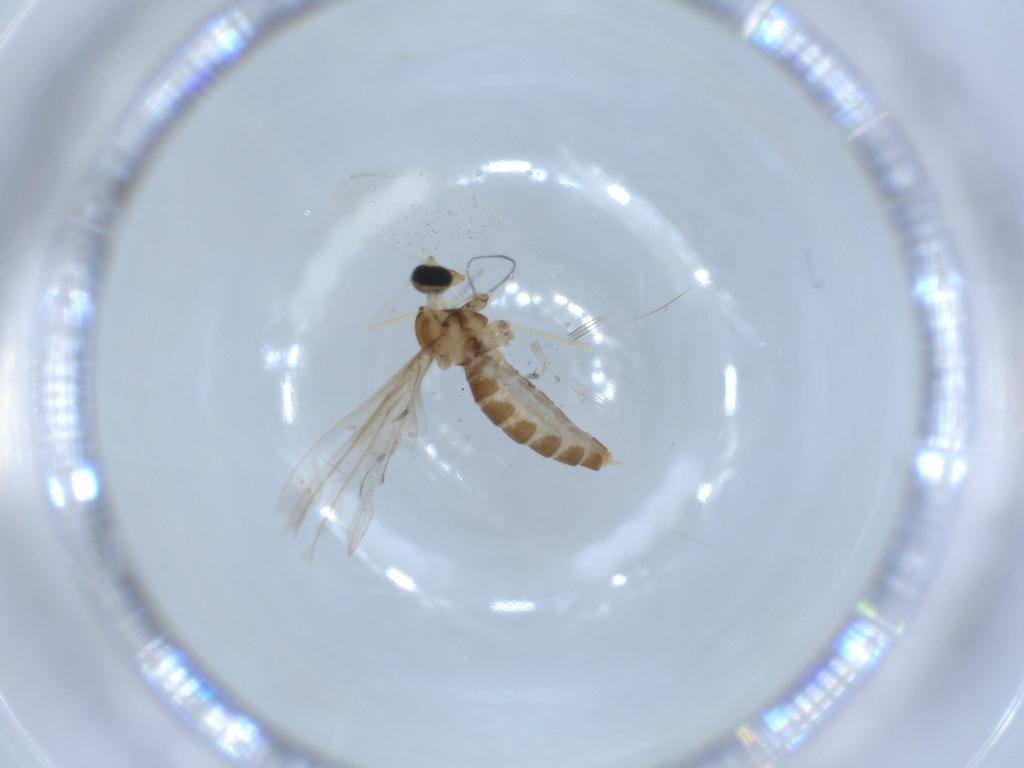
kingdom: Animalia
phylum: Arthropoda
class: Insecta
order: Diptera
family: Cecidomyiidae
